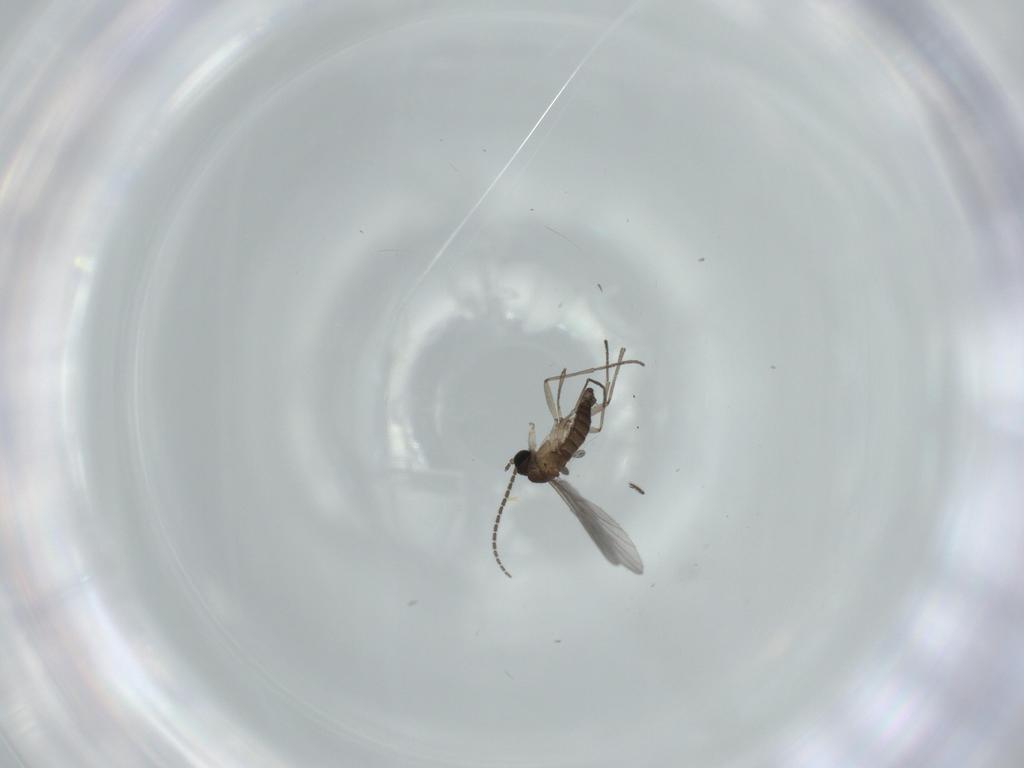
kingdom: Animalia
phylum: Arthropoda
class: Insecta
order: Diptera
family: Sciaridae
